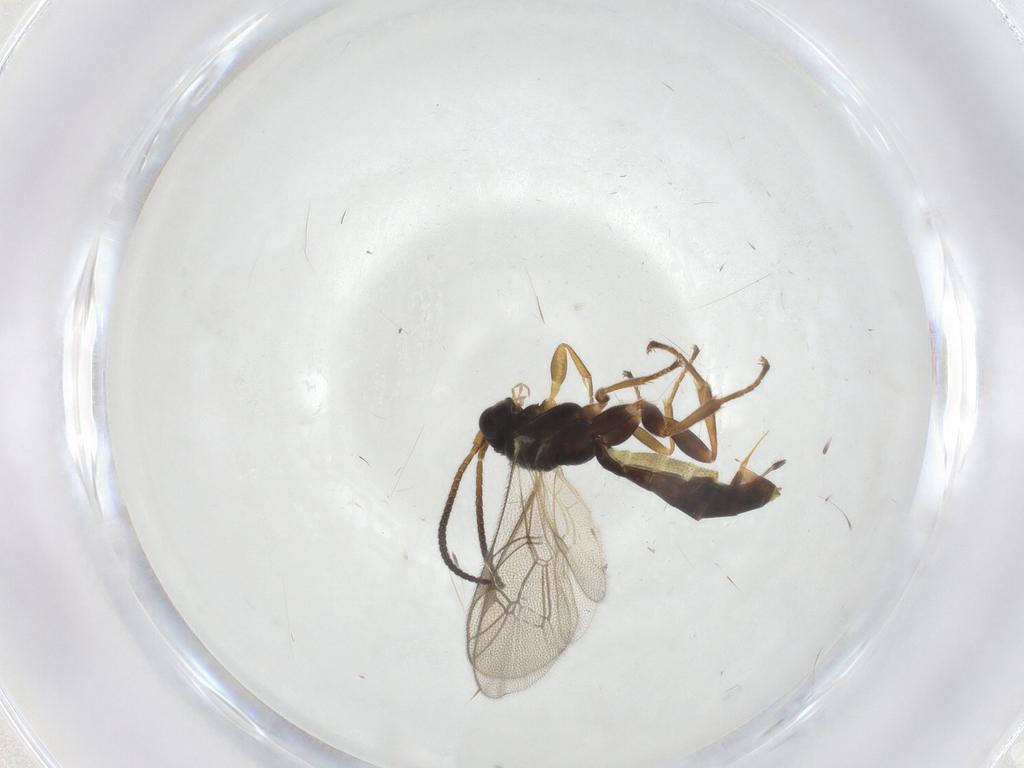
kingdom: Animalia
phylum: Arthropoda
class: Insecta
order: Hymenoptera
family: Ichneumonidae
